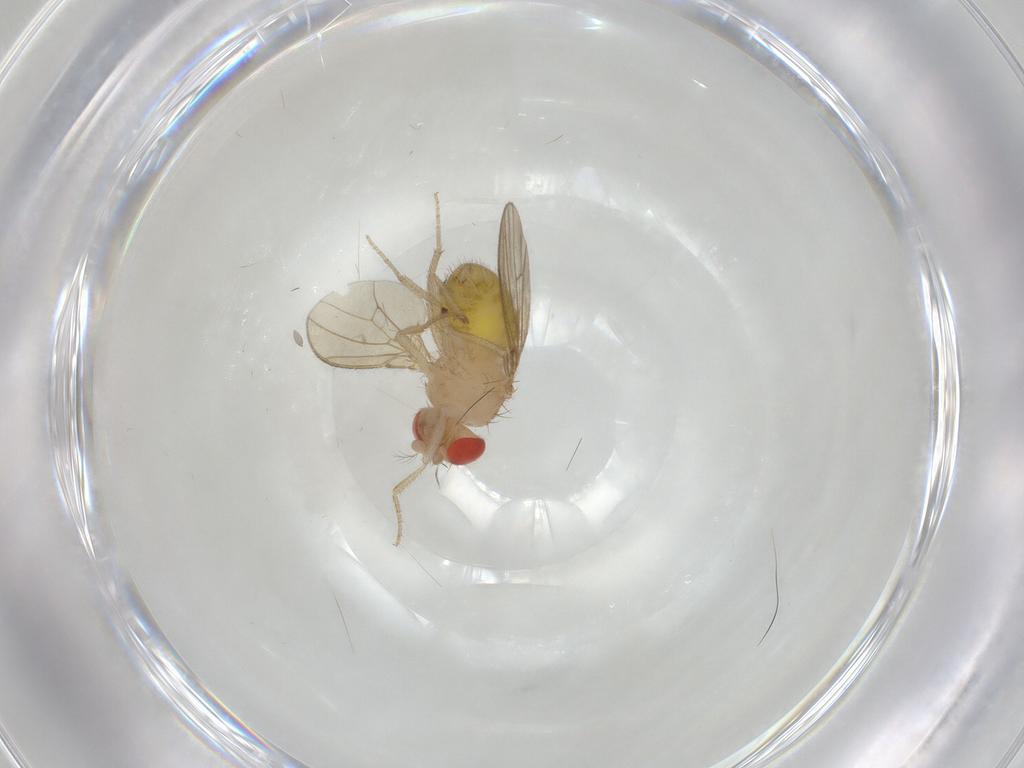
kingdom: Animalia
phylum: Arthropoda
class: Insecta
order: Diptera
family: Drosophilidae
